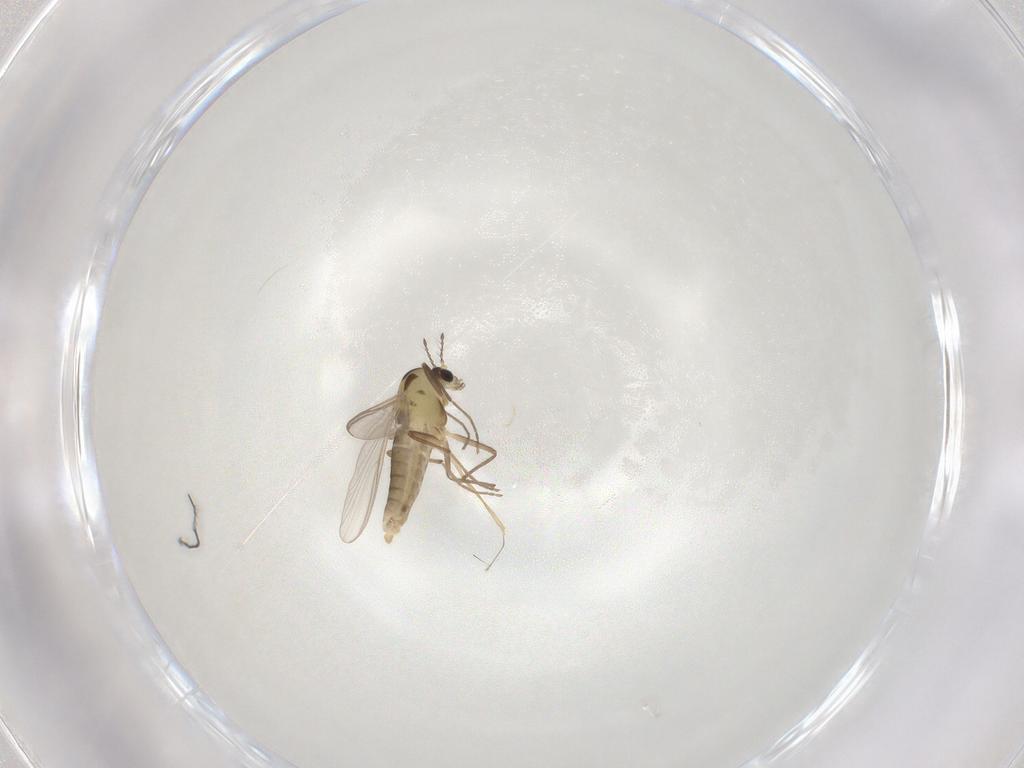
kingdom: Animalia
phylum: Arthropoda
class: Insecta
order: Diptera
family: Chironomidae
